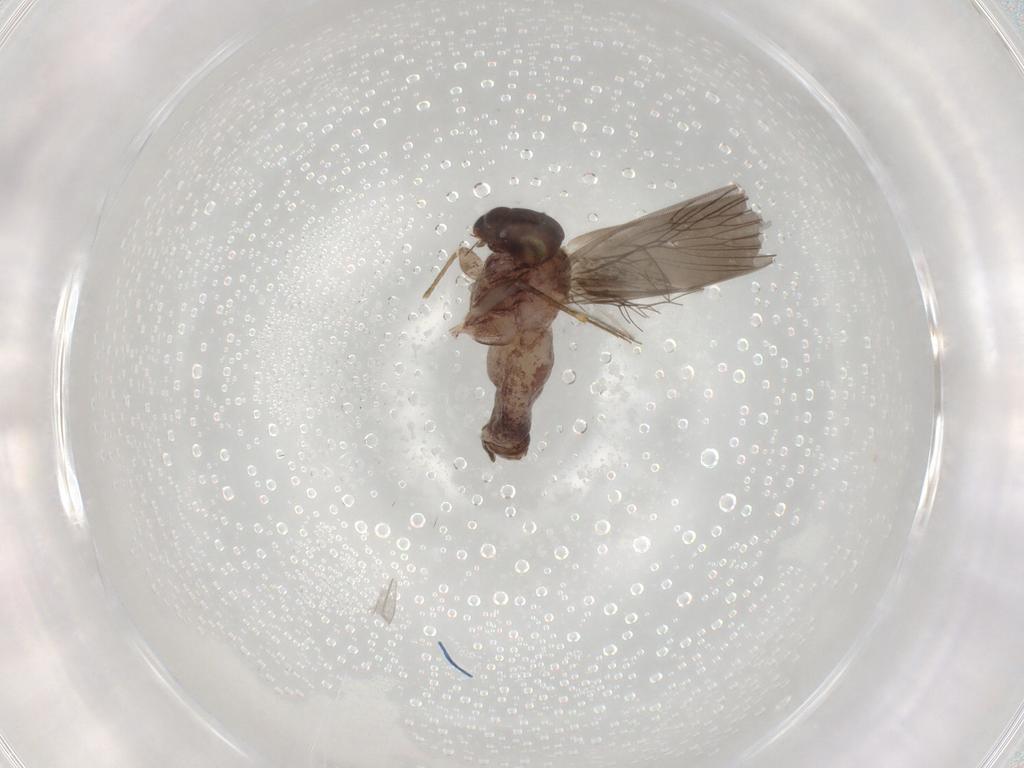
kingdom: Animalia
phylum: Arthropoda
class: Insecta
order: Psocodea
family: Lepidopsocidae
